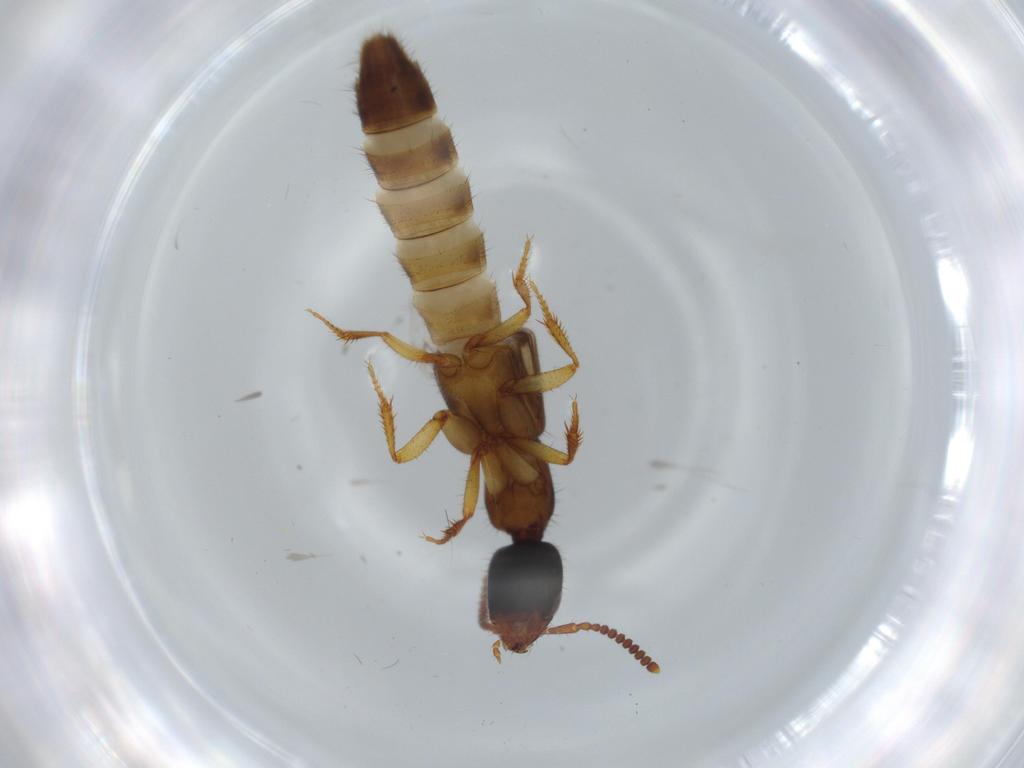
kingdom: Animalia
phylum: Arthropoda
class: Insecta
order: Coleoptera
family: Staphylinidae
